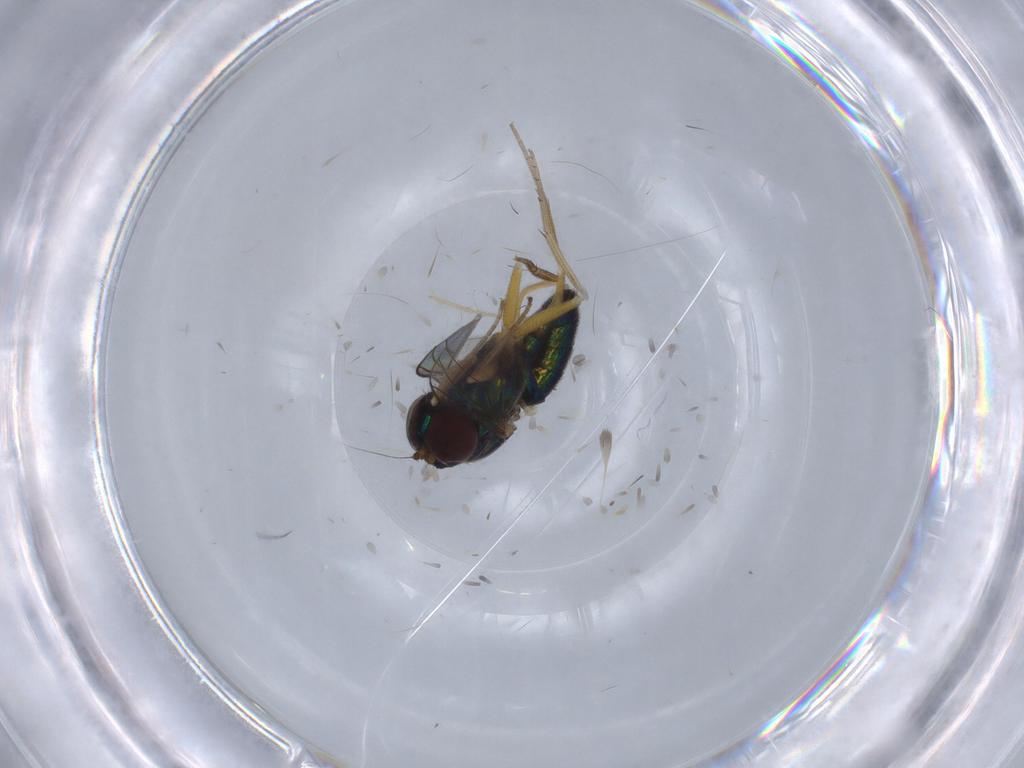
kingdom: Animalia
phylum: Arthropoda
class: Insecta
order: Diptera
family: Dolichopodidae
